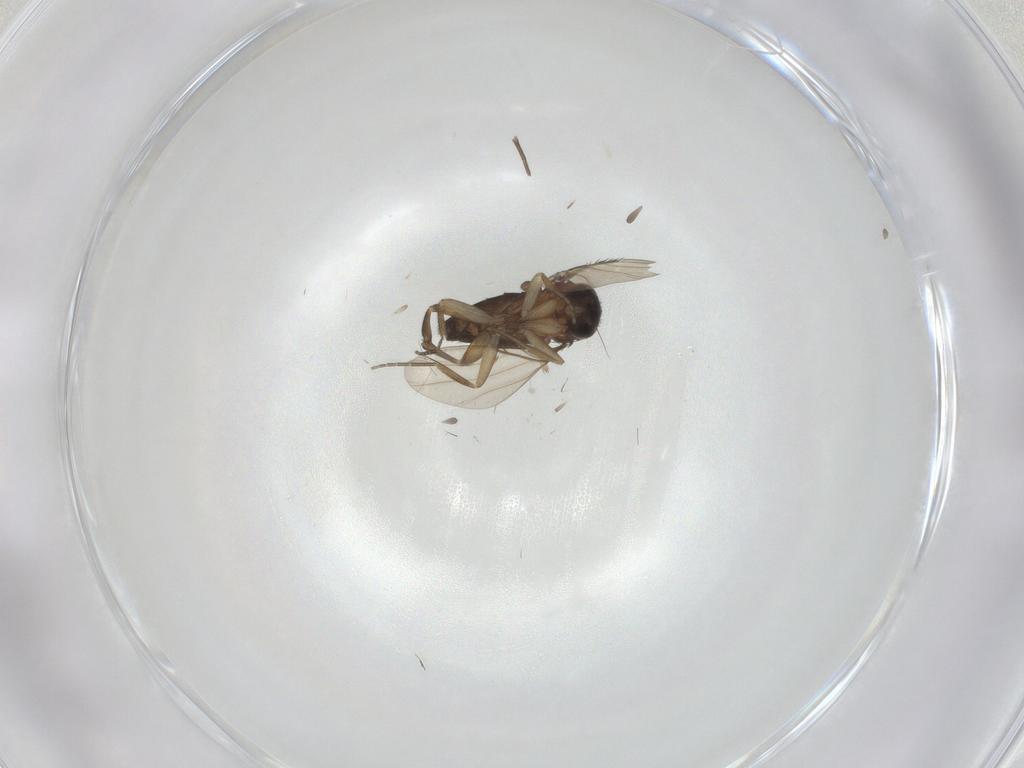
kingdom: Animalia
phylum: Arthropoda
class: Insecta
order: Diptera
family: Phoridae
